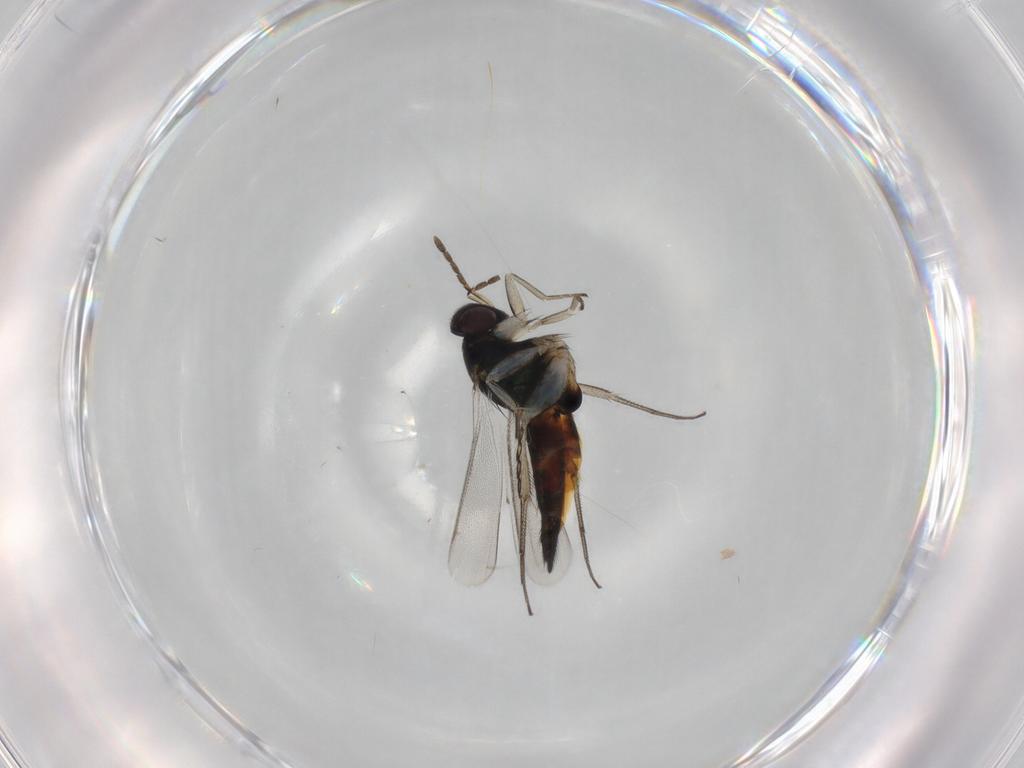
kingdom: Animalia
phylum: Arthropoda
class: Insecta
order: Hymenoptera
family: Eulophidae
